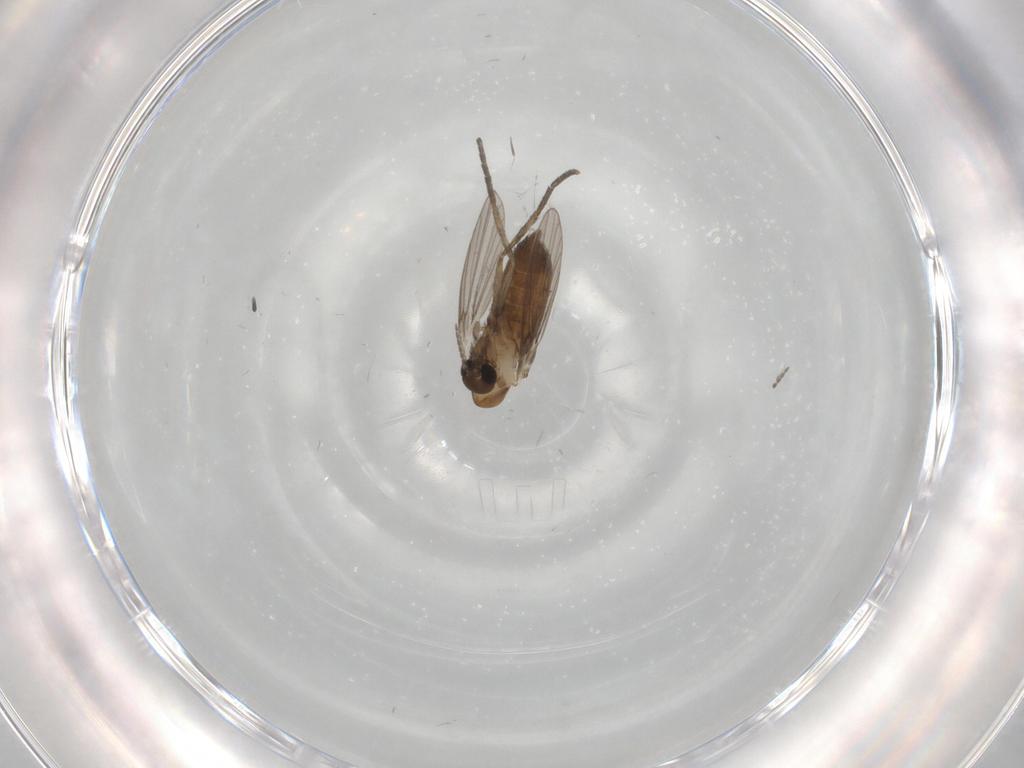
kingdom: Animalia
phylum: Arthropoda
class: Insecta
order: Diptera
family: Psychodidae
